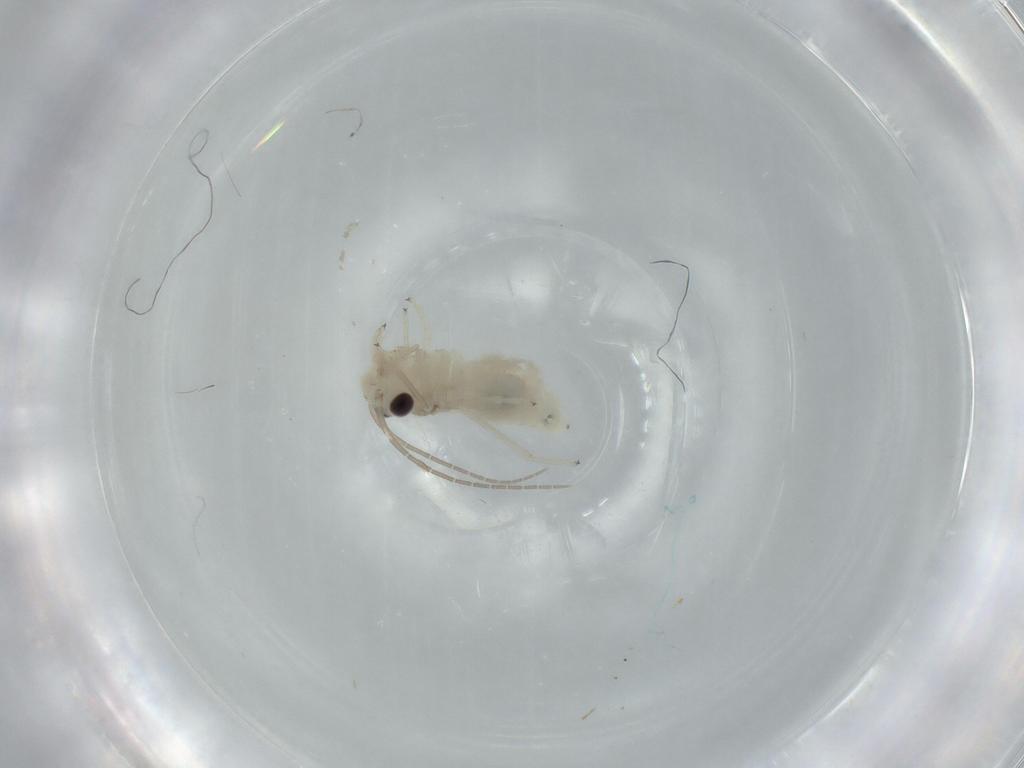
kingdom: Animalia
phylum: Arthropoda
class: Insecta
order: Psocodea
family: Caeciliusidae
